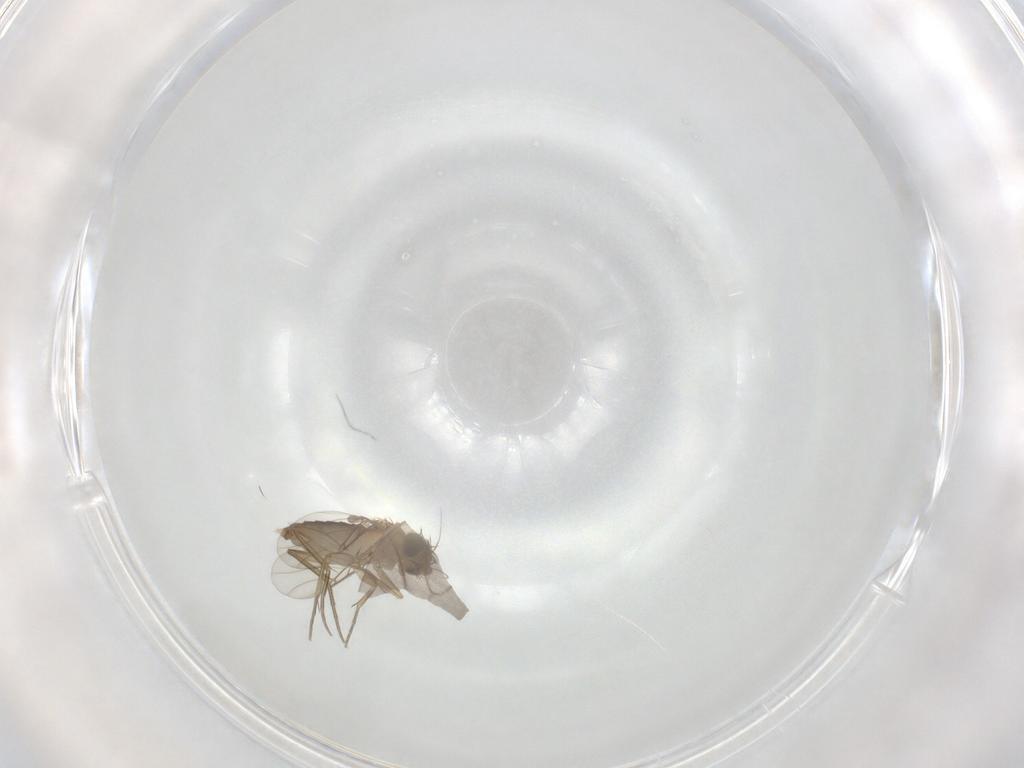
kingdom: Animalia
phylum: Arthropoda
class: Insecta
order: Diptera
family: Phoridae
